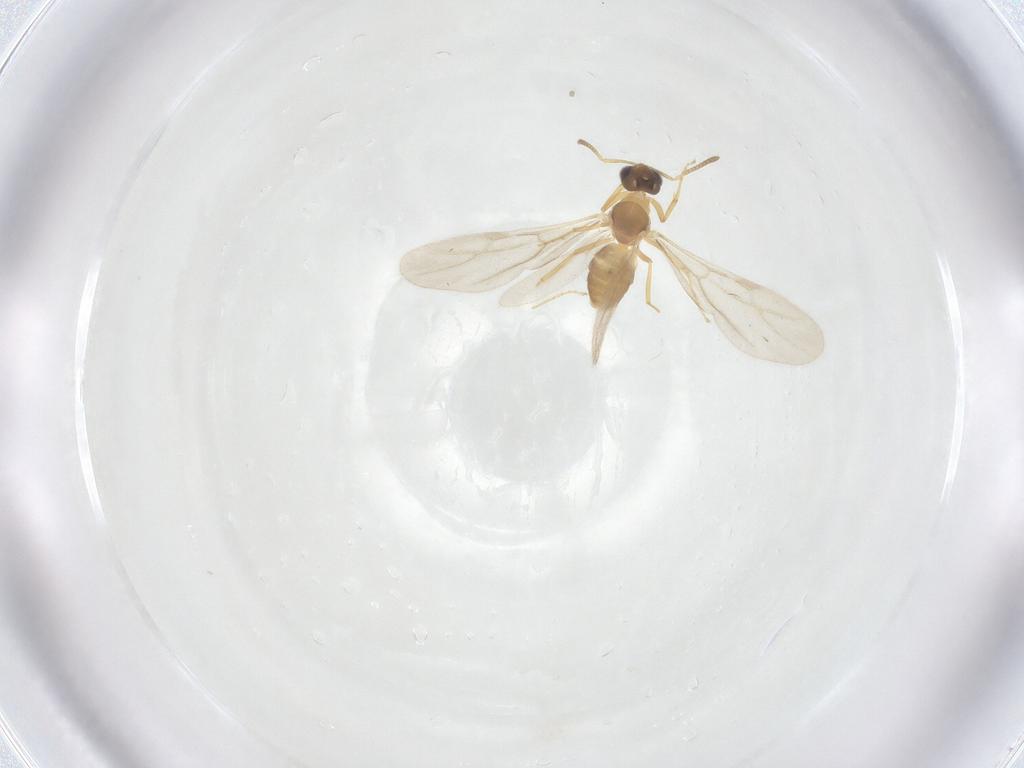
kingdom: Animalia
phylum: Arthropoda
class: Insecta
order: Hymenoptera
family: Formicidae
